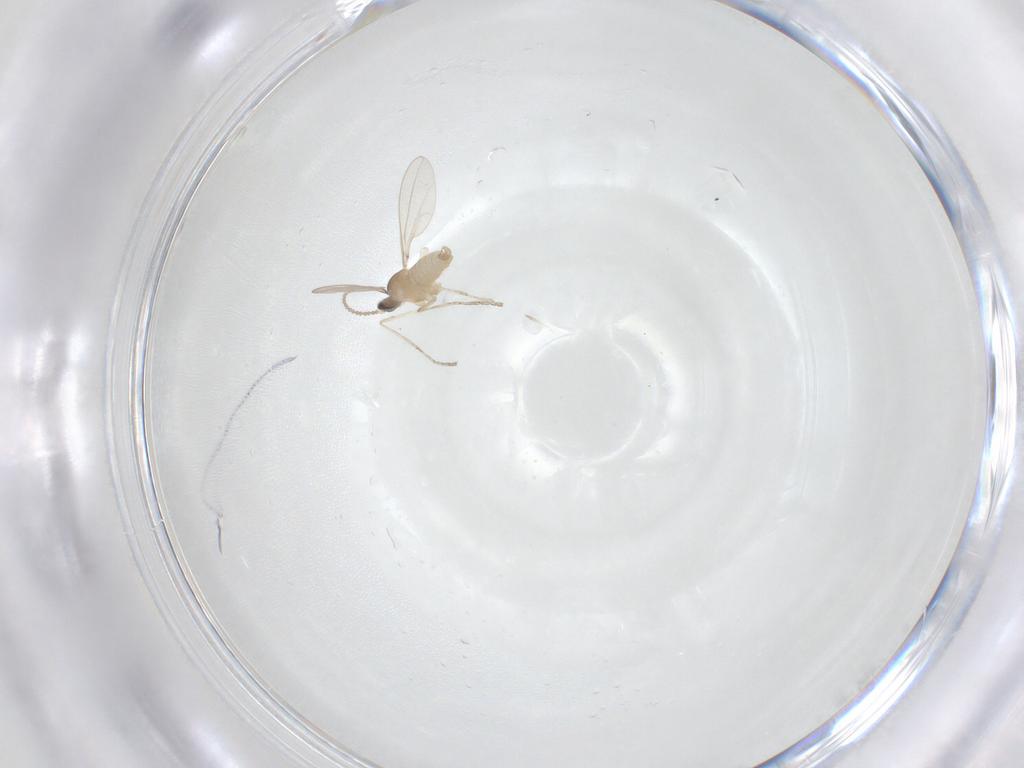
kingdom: Animalia
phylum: Arthropoda
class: Insecta
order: Diptera
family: Cecidomyiidae
